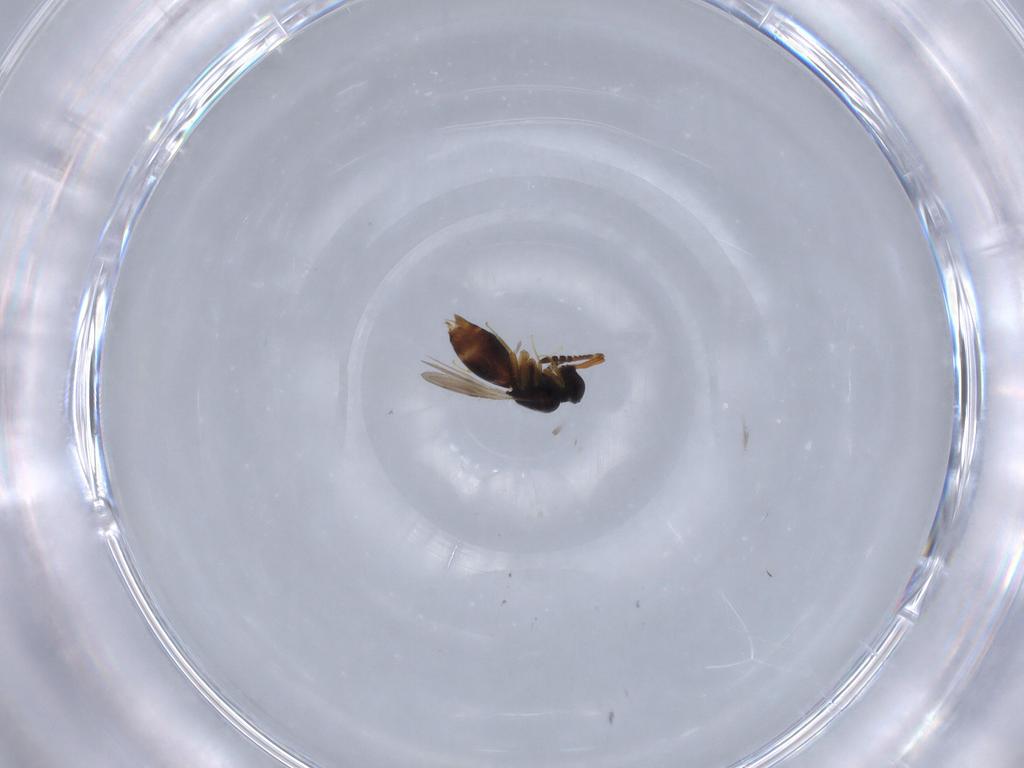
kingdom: Animalia
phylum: Arthropoda
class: Insecta
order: Hymenoptera
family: Ceraphronidae
